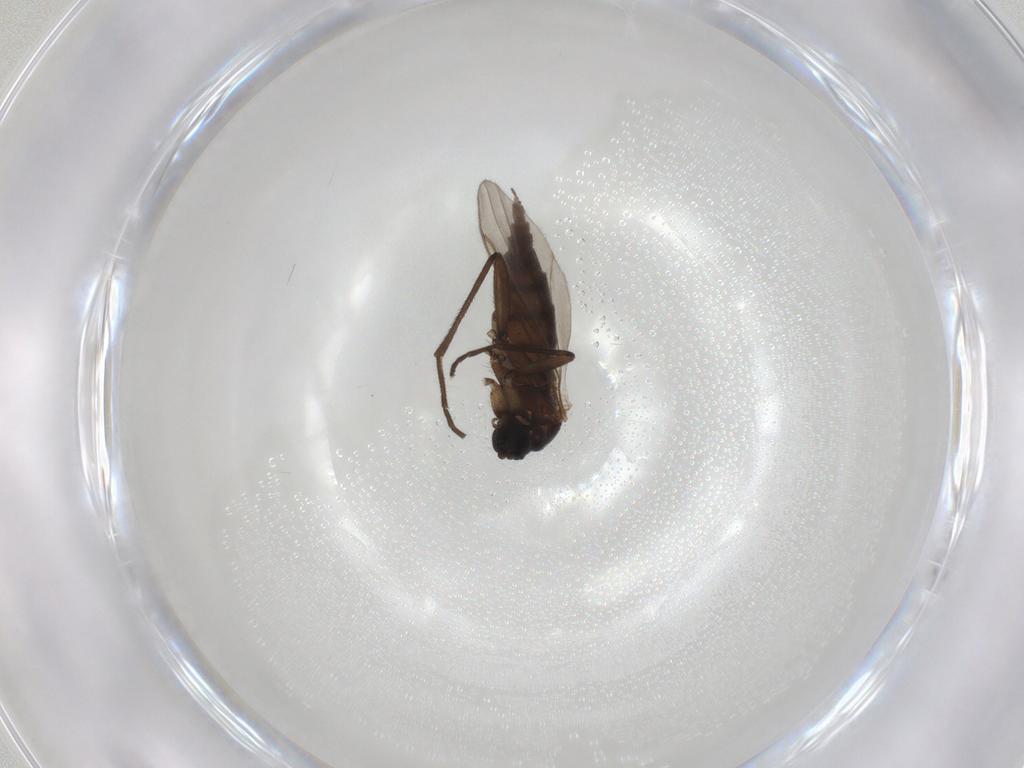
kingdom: Animalia
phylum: Arthropoda
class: Insecta
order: Diptera
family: Sciaridae
